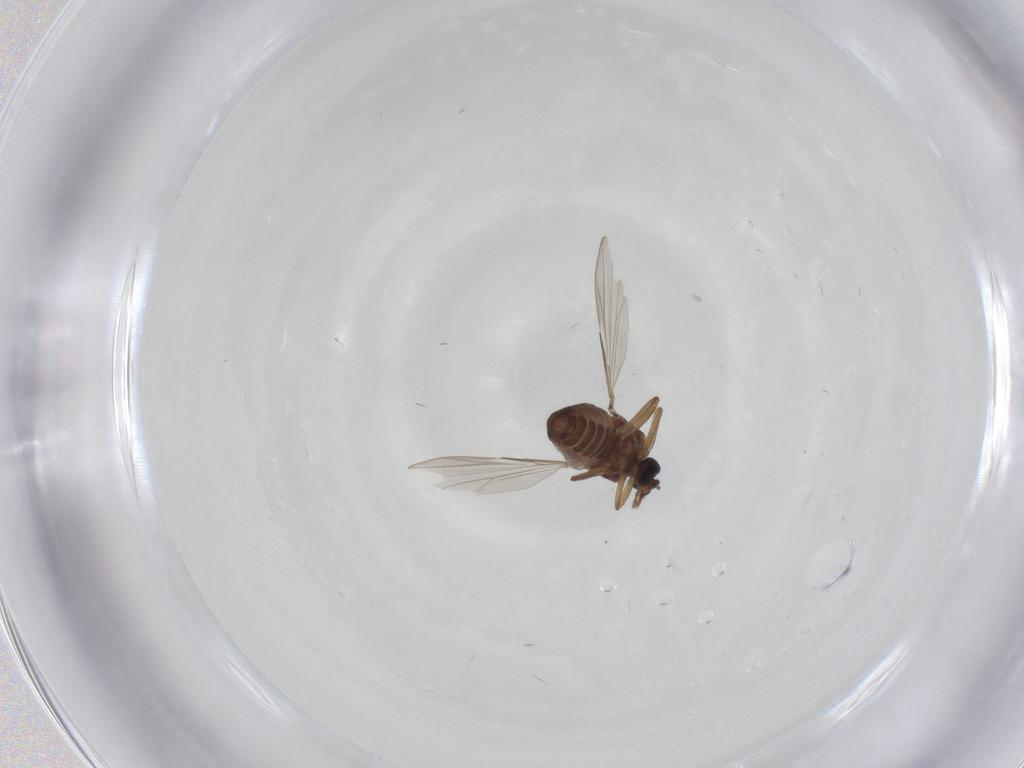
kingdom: Animalia
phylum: Arthropoda
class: Insecta
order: Diptera
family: Ceratopogonidae
